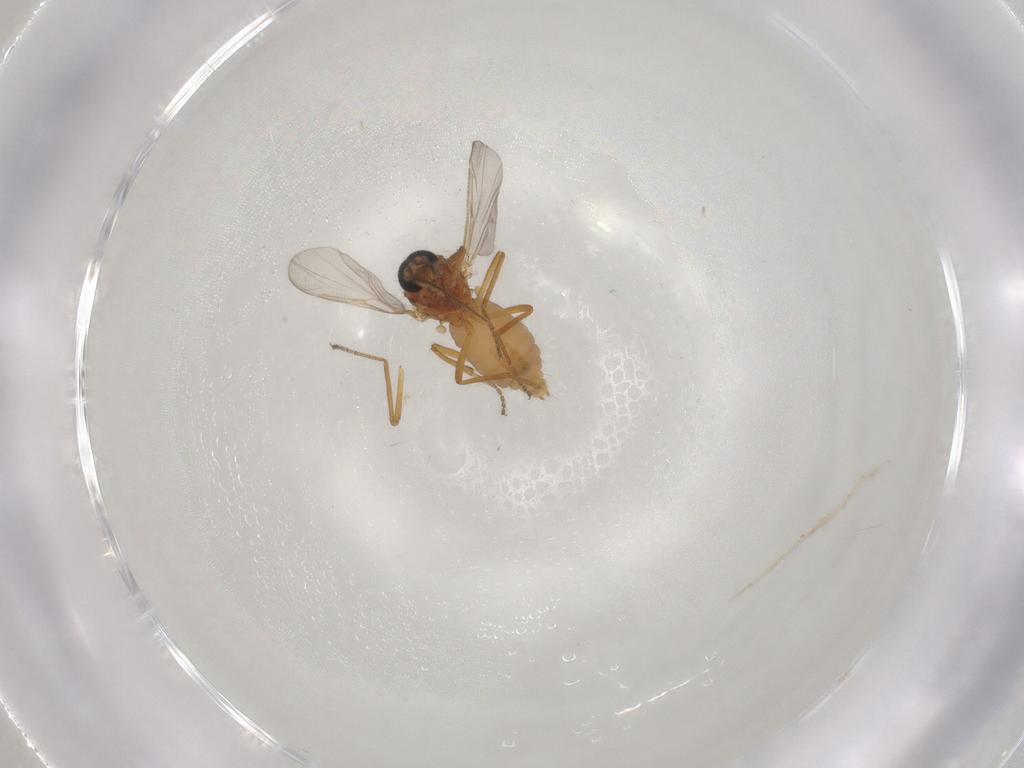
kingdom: Animalia
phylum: Arthropoda
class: Insecta
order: Diptera
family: Ceratopogonidae
